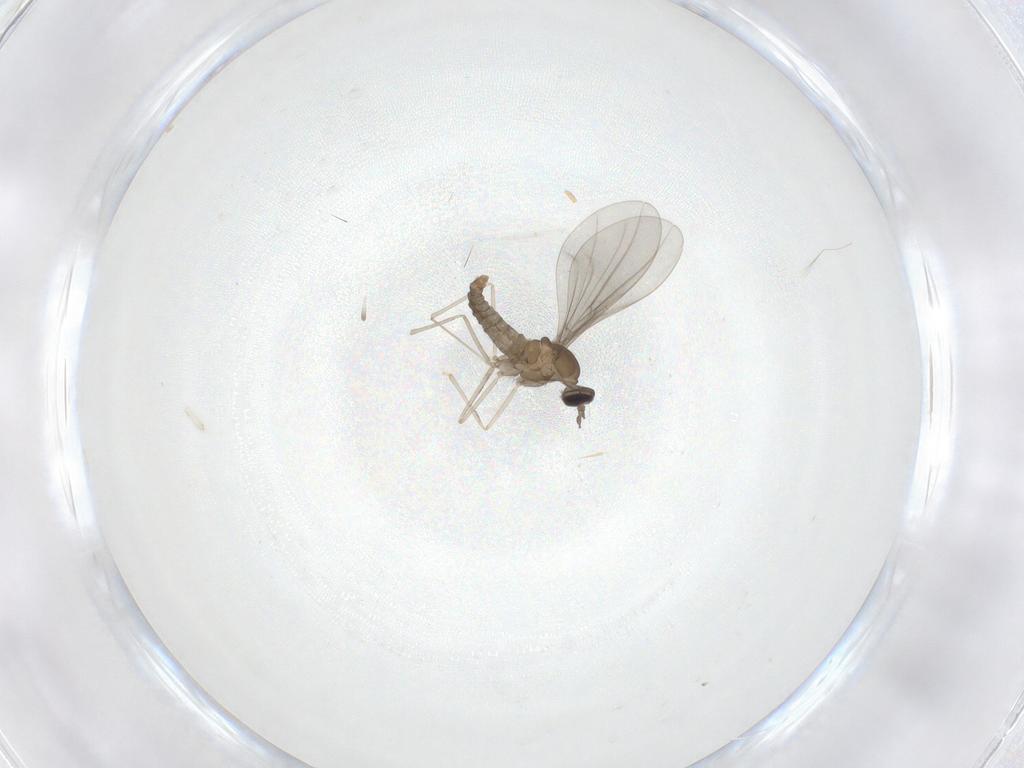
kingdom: Animalia
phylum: Arthropoda
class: Insecta
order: Diptera
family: Cecidomyiidae
